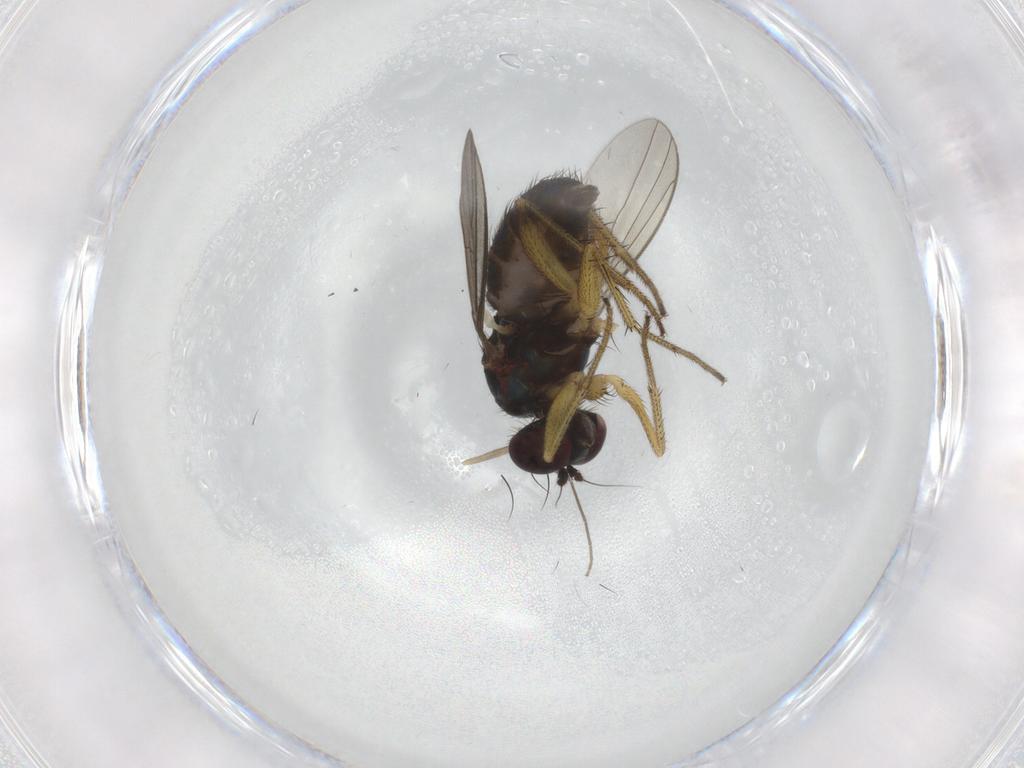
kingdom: Animalia
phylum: Arthropoda
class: Insecta
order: Diptera
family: Dolichopodidae
